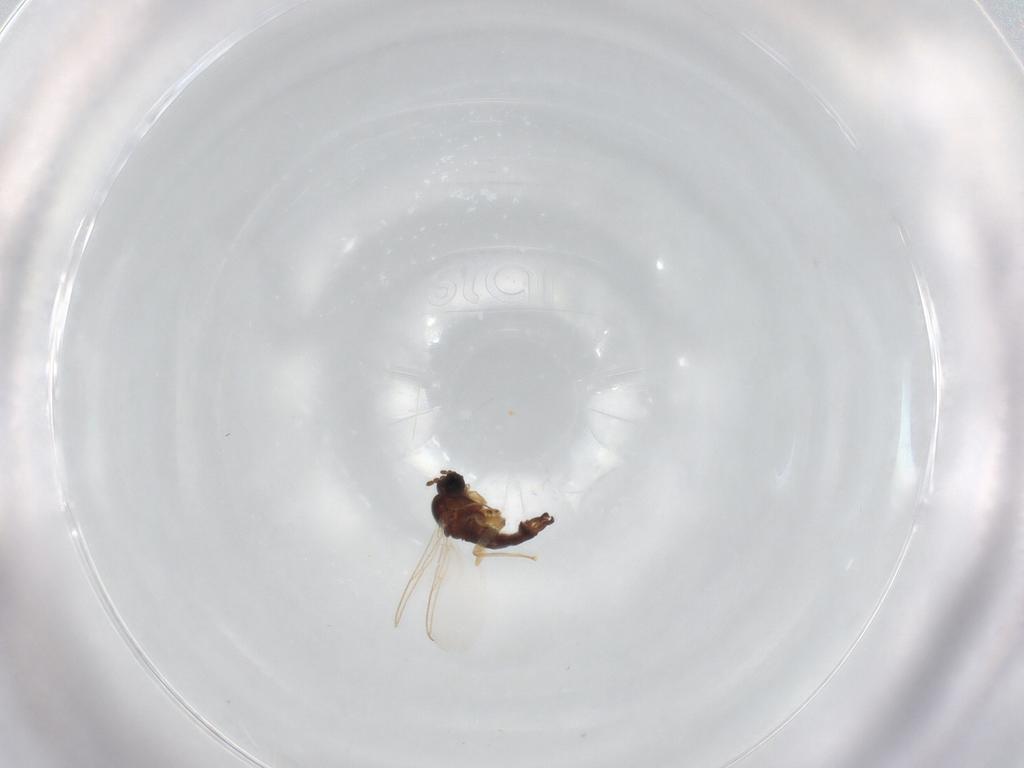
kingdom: Animalia
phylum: Arthropoda
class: Insecta
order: Diptera
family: Sciaridae
